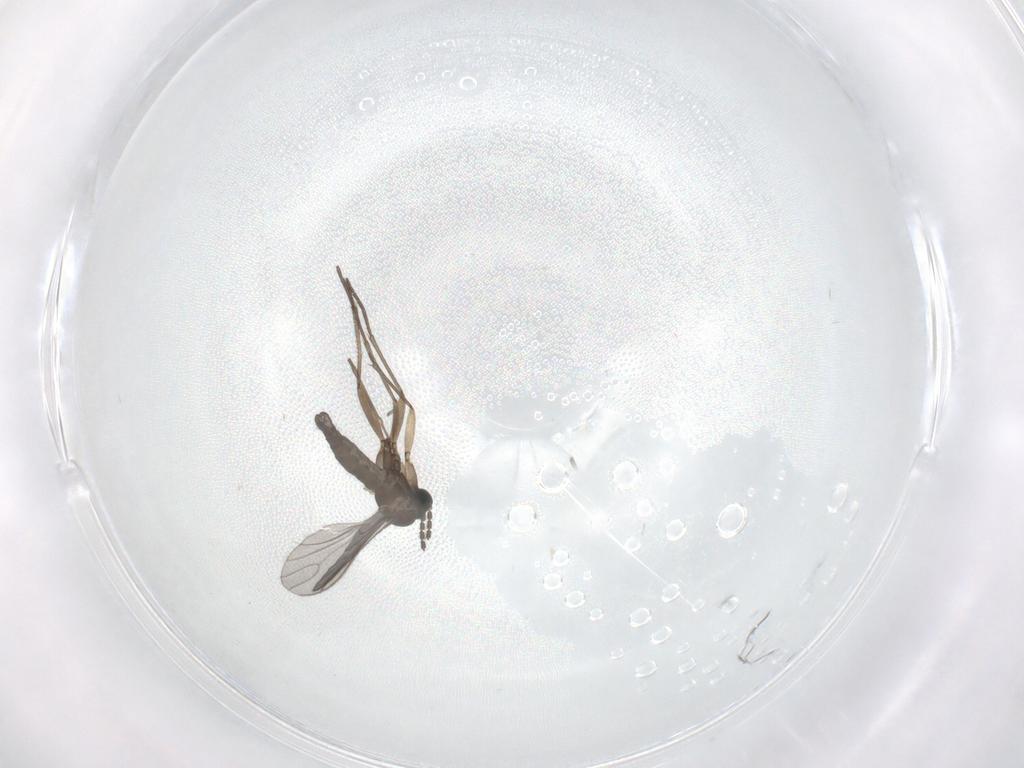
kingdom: Animalia
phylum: Arthropoda
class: Insecta
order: Diptera
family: Sciaridae
